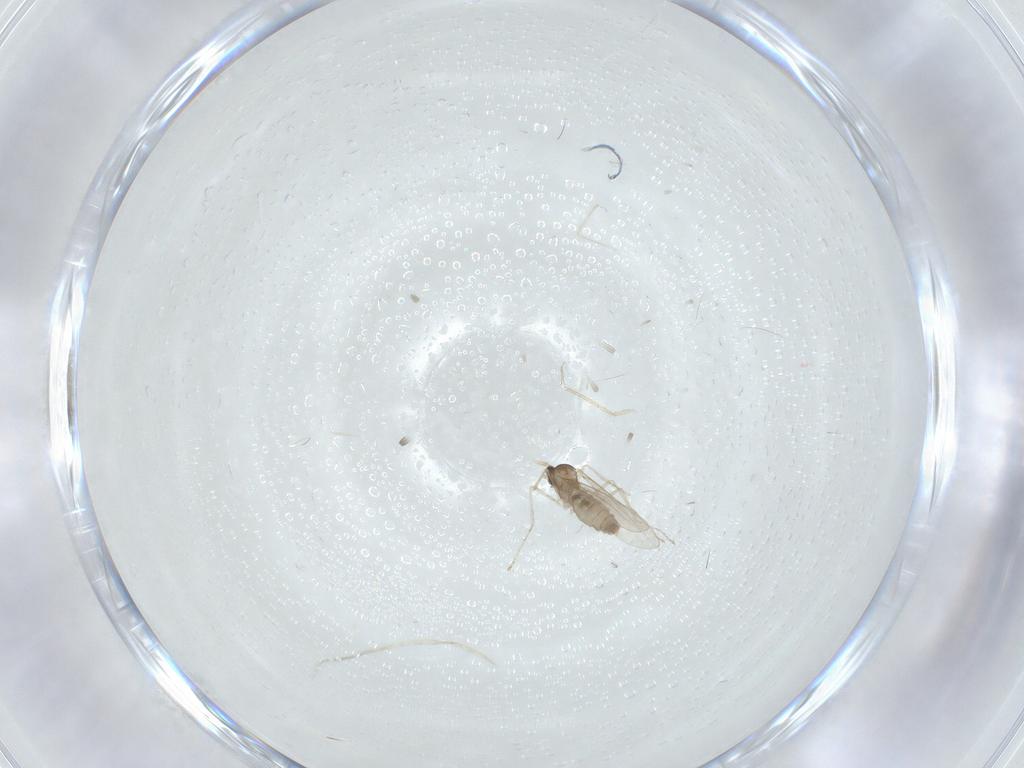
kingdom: Animalia
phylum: Arthropoda
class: Insecta
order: Diptera
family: Cecidomyiidae
